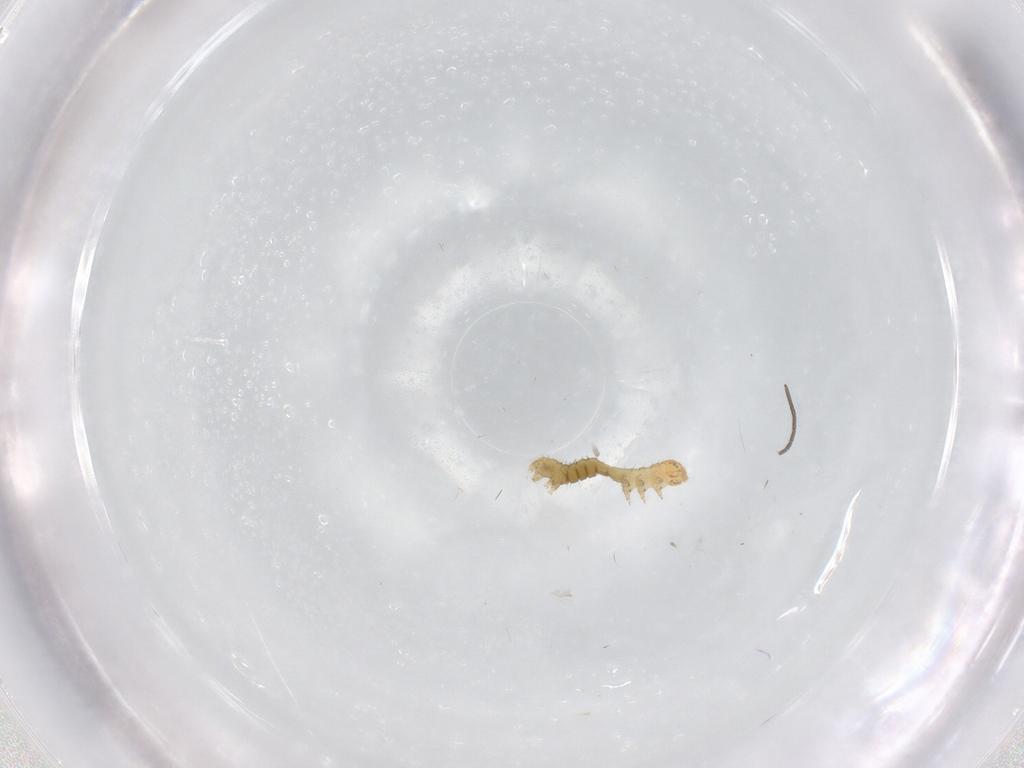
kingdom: Animalia
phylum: Arthropoda
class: Insecta
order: Lepidoptera
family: Geometridae
